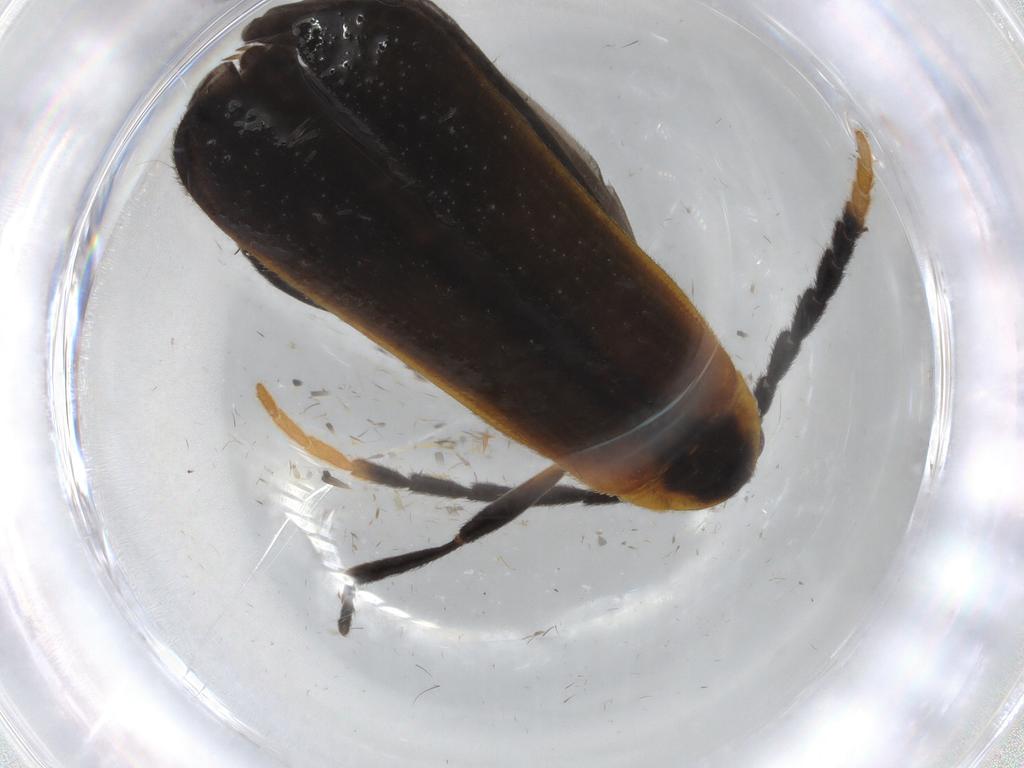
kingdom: Animalia
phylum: Arthropoda
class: Insecta
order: Coleoptera
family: Lycidae
